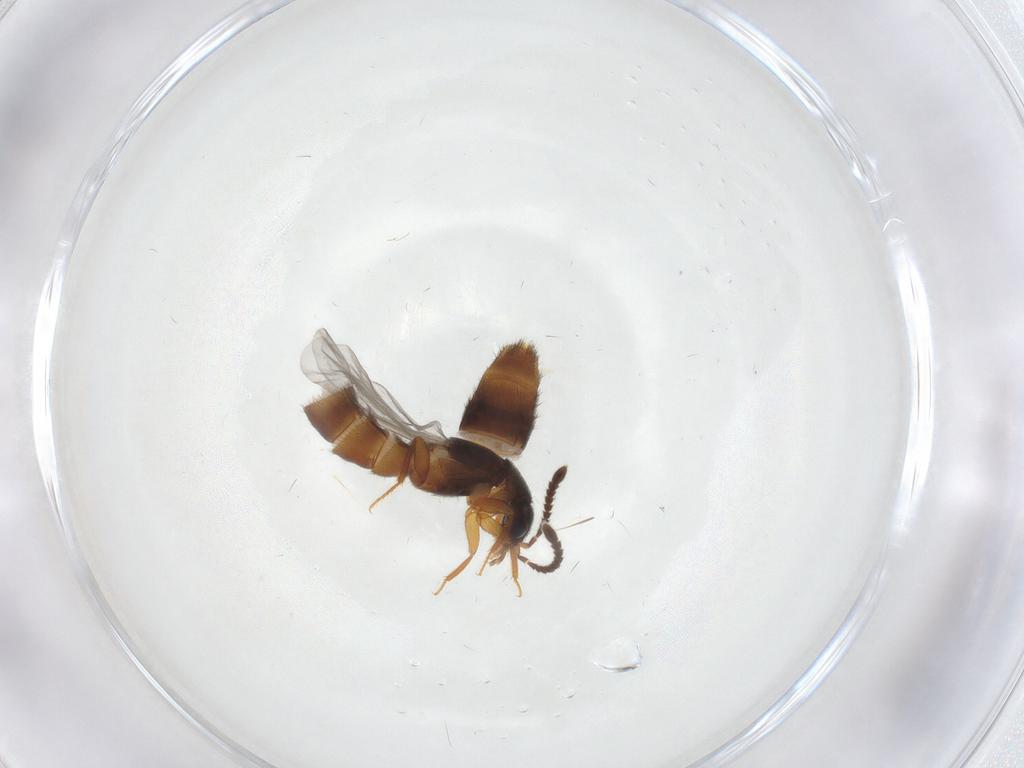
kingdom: Animalia
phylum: Arthropoda
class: Insecta
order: Coleoptera
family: Staphylinidae
